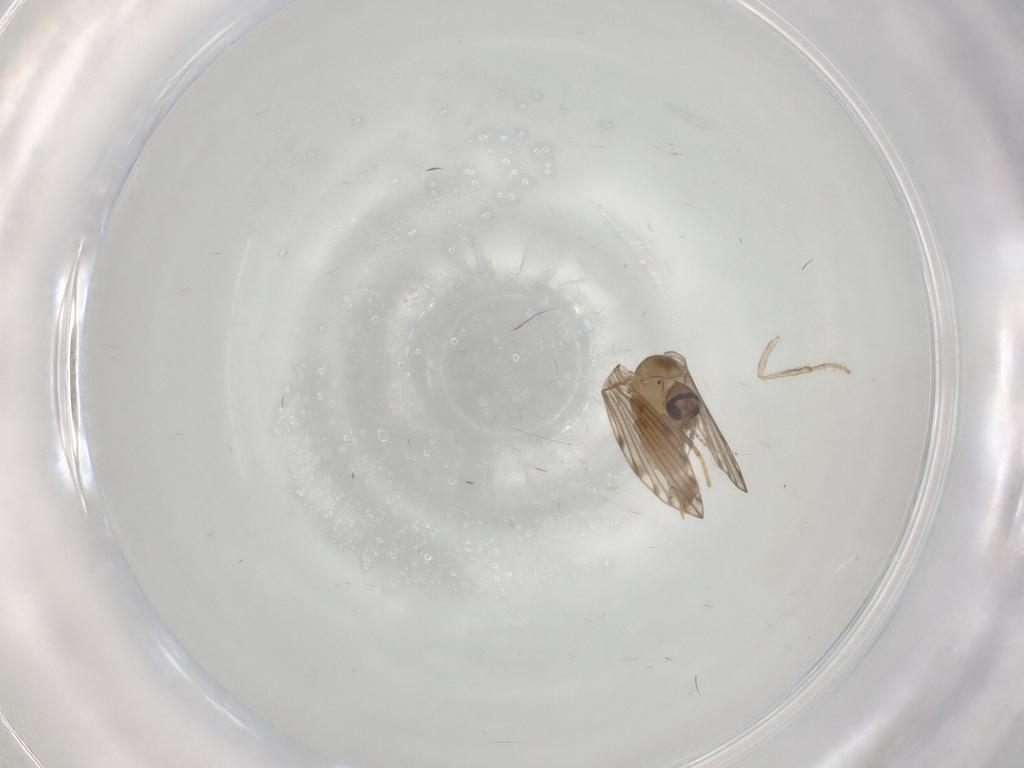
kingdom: Animalia
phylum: Arthropoda
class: Insecta
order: Diptera
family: Psychodidae
